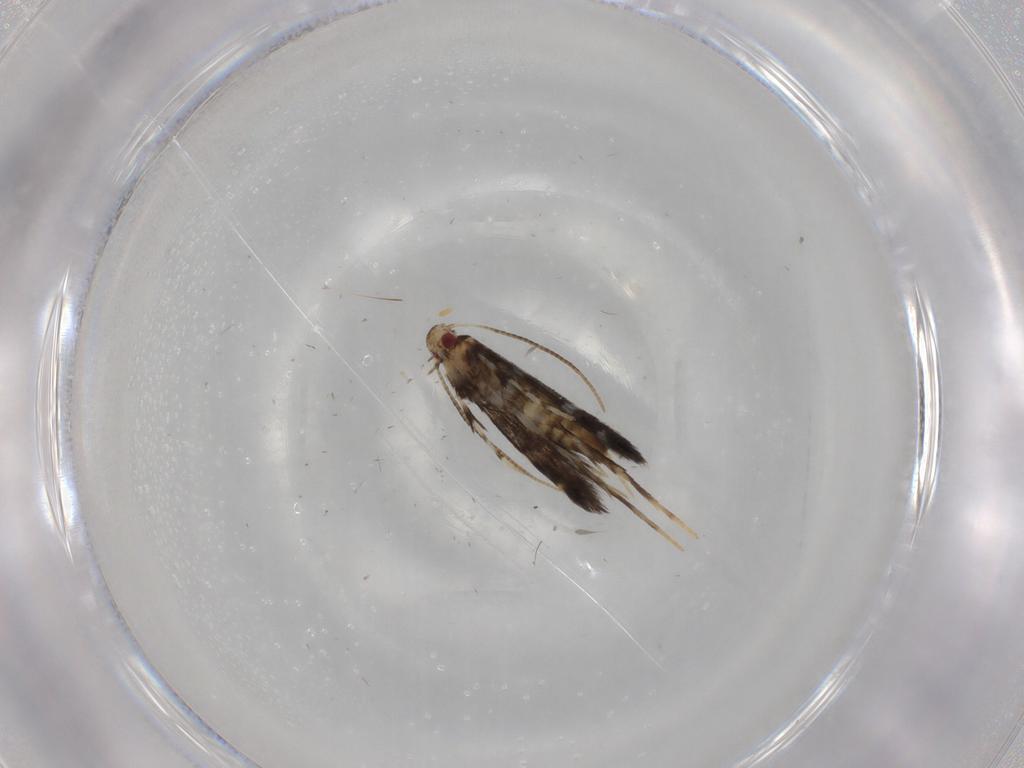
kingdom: Animalia
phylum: Arthropoda
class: Insecta
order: Lepidoptera
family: Gracillariidae
